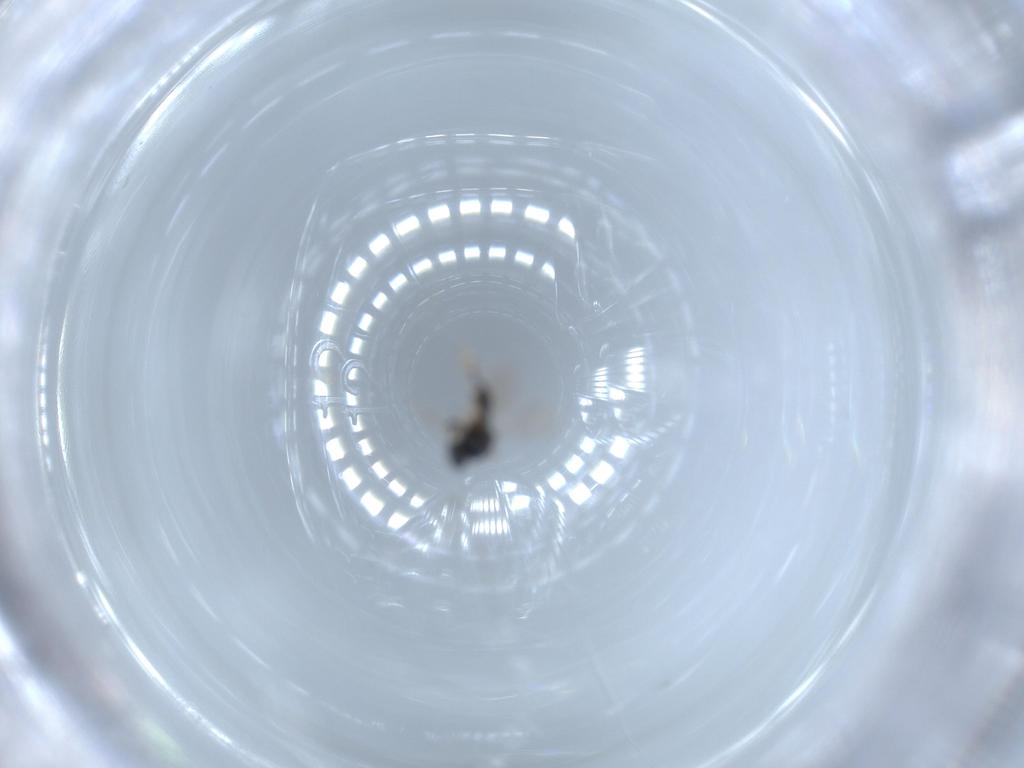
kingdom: Animalia
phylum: Arthropoda
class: Insecta
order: Hymenoptera
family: Formicidae
